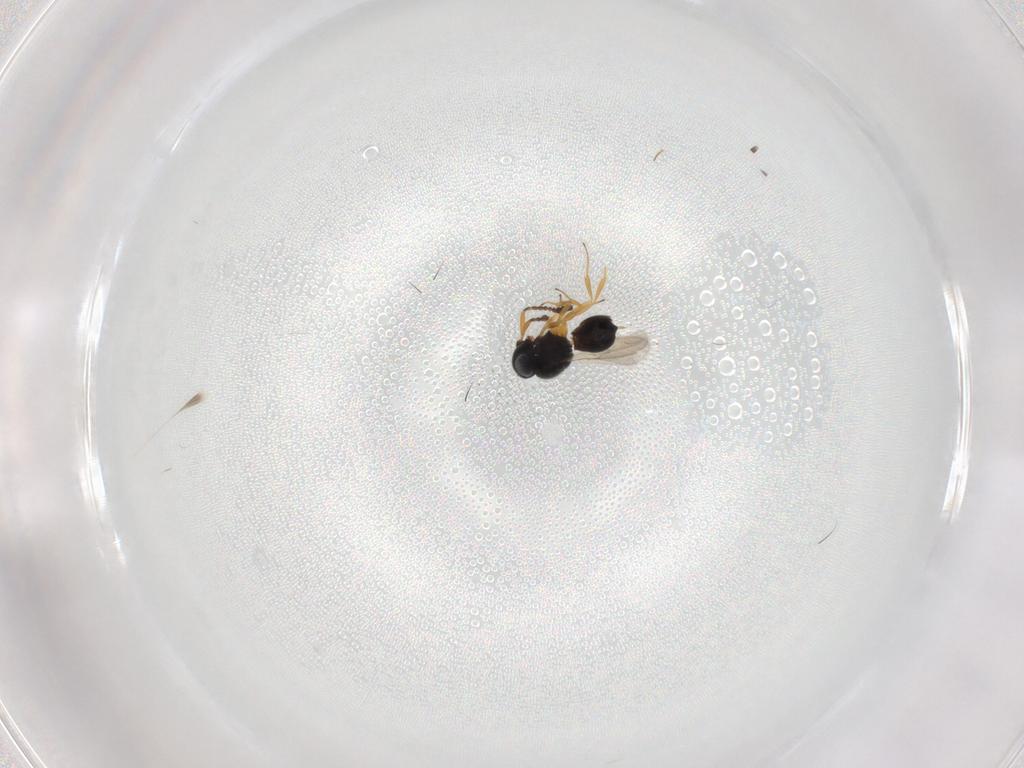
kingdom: Animalia
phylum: Arthropoda
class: Insecta
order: Hymenoptera
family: Scelionidae
